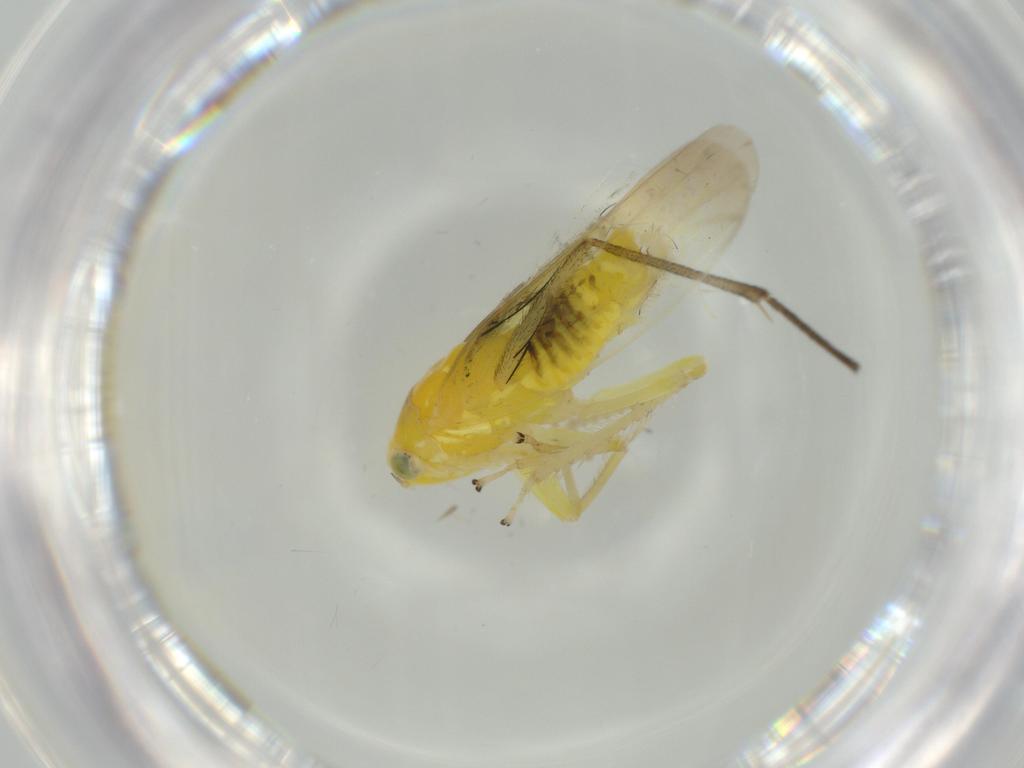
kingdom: Animalia
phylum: Arthropoda
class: Insecta
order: Hemiptera
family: Cicadellidae
